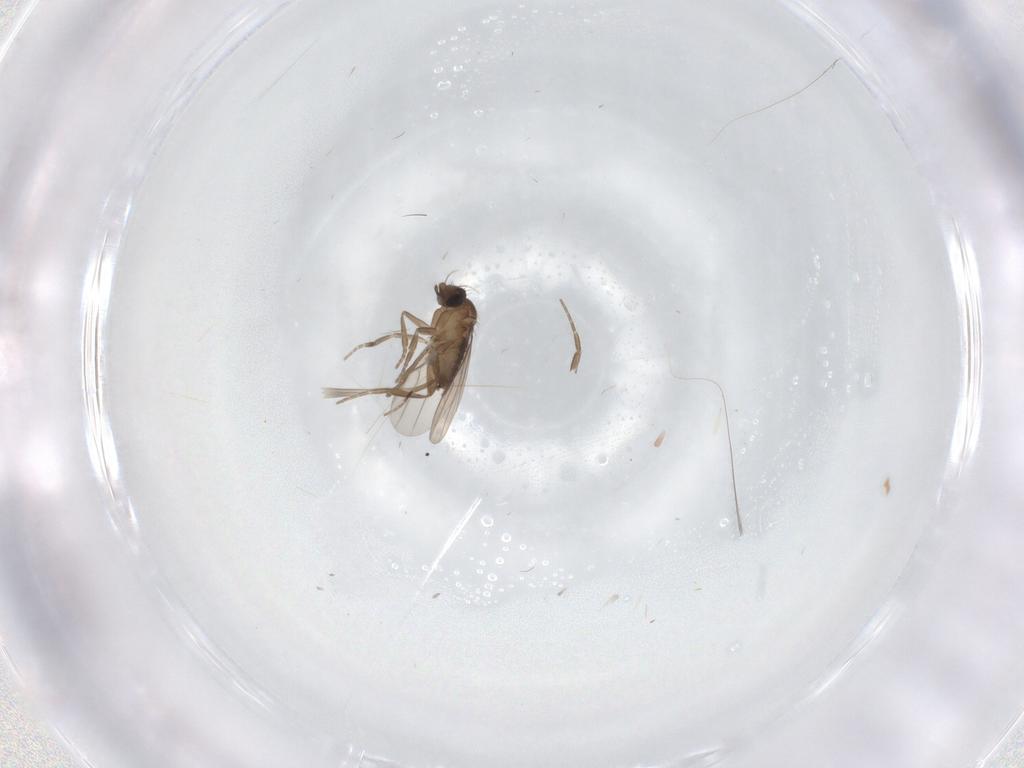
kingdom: Animalia
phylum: Arthropoda
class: Insecta
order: Diptera
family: Phoridae
